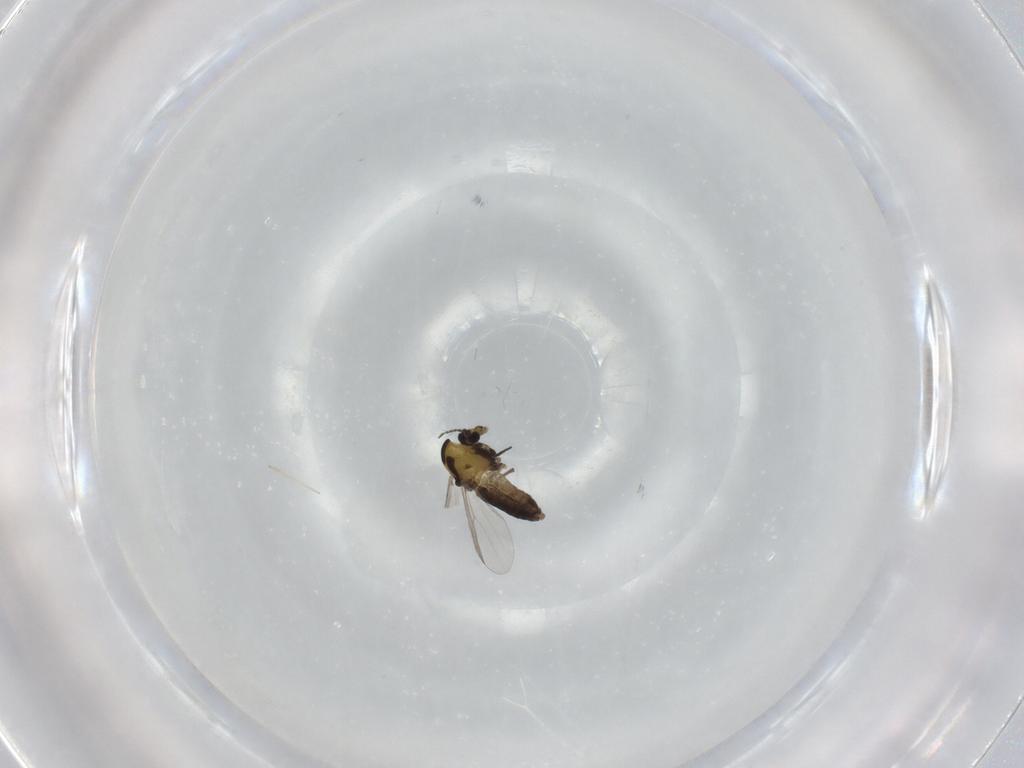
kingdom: Animalia
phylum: Arthropoda
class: Insecta
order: Diptera
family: Chironomidae
